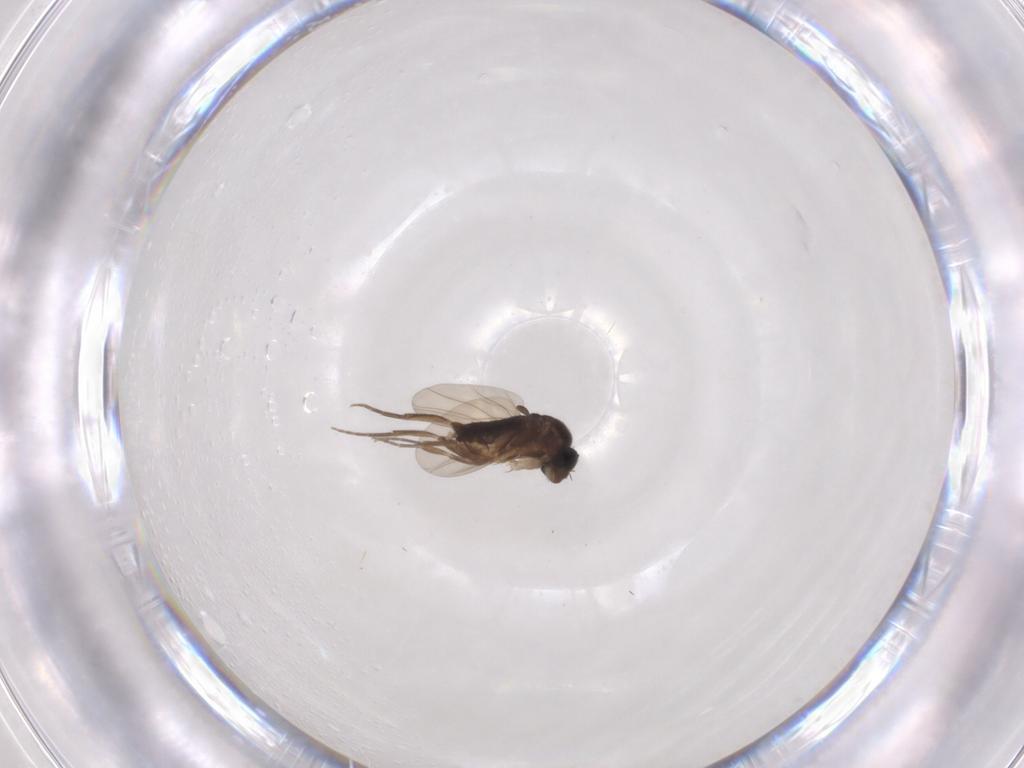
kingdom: Animalia
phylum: Arthropoda
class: Insecta
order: Diptera
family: Phoridae
